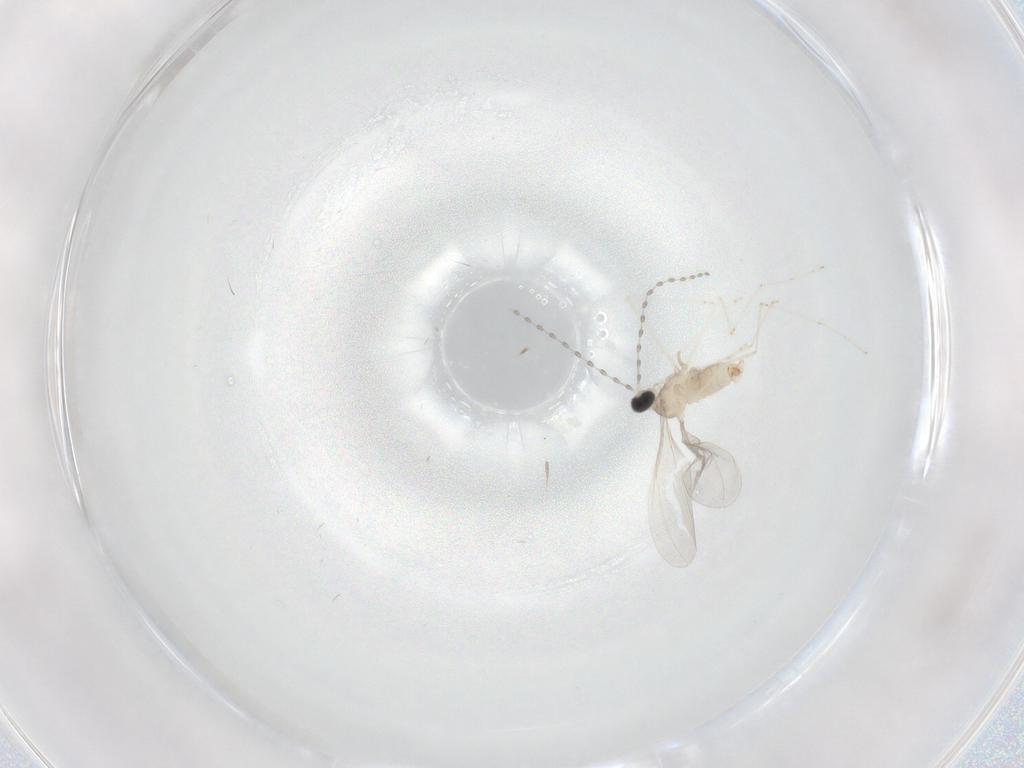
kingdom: Animalia
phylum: Arthropoda
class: Insecta
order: Diptera
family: Cecidomyiidae
